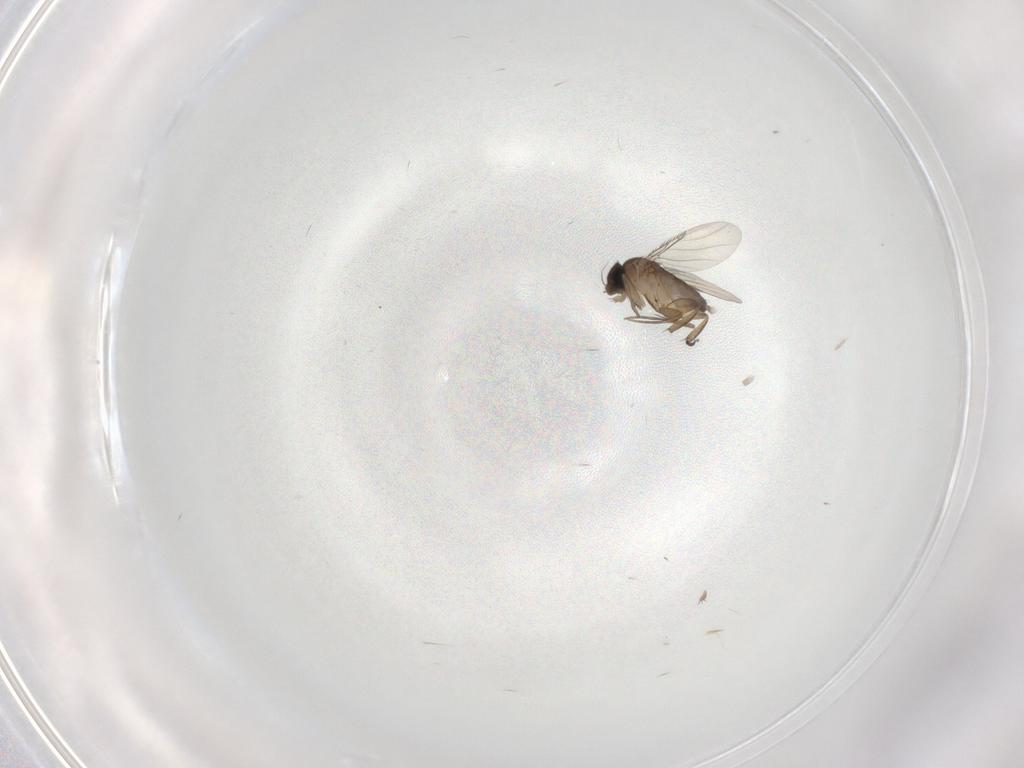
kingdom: Animalia
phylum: Arthropoda
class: Insecta
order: Diptera
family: Phoridae
